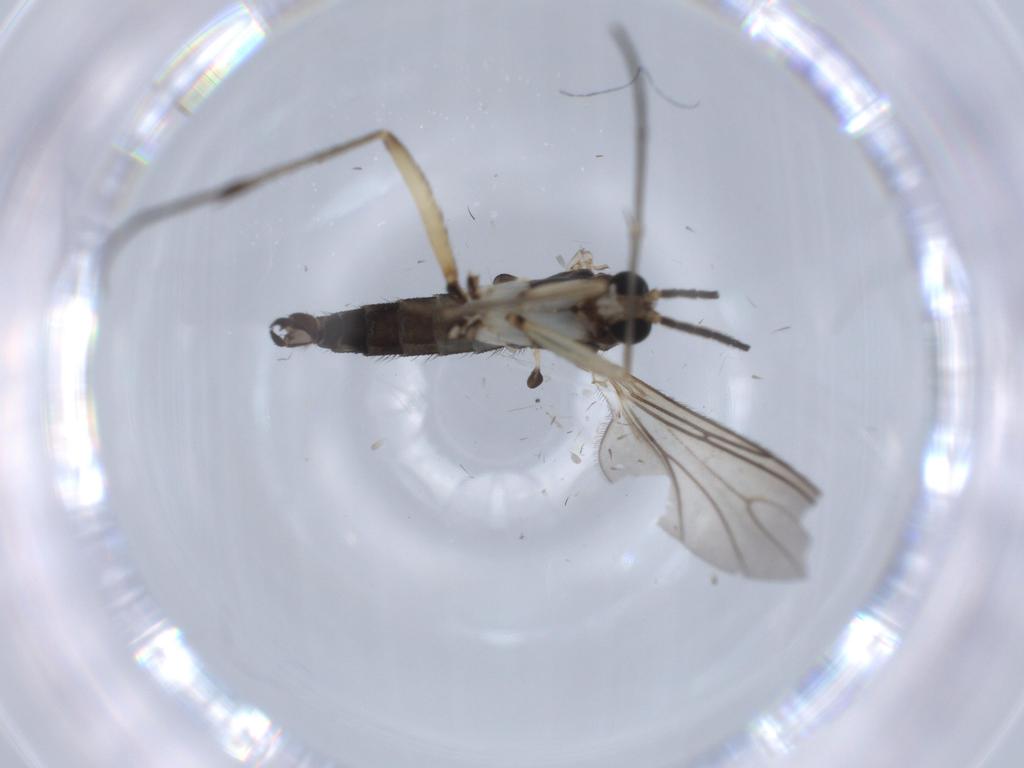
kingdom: Animalia
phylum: Arthropoda
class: Insecta
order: Diptera
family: Sciaridae
